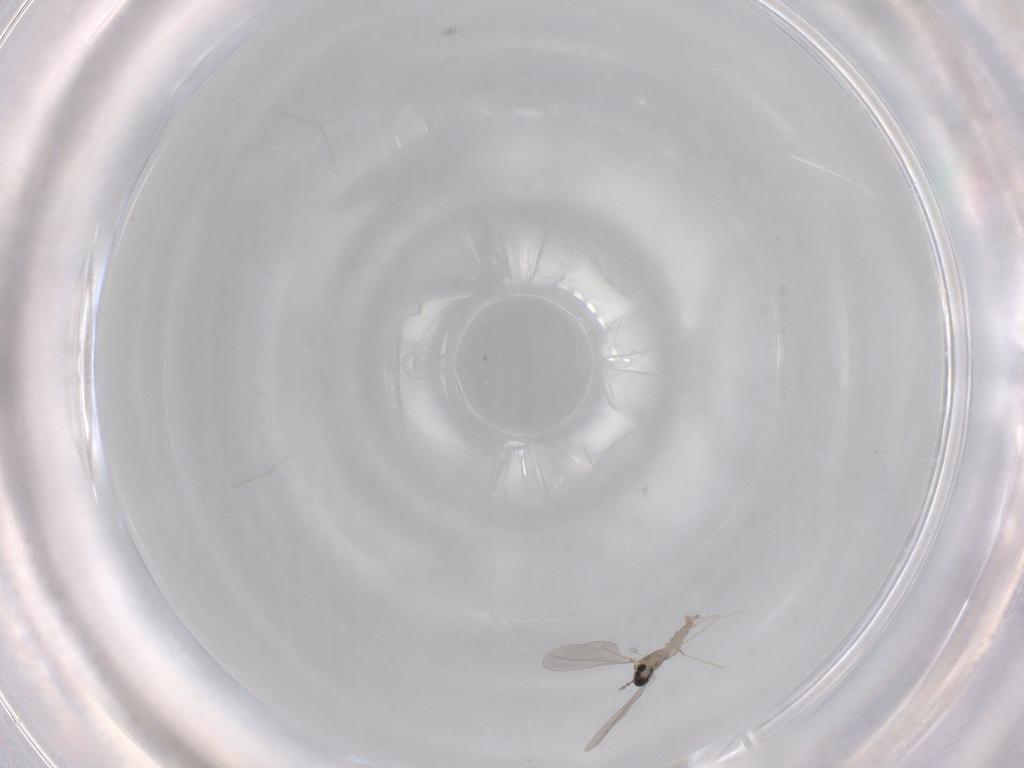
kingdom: Animalia
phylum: Arthropoda
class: Insecta
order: Diptera
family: Cecidomyiidae
